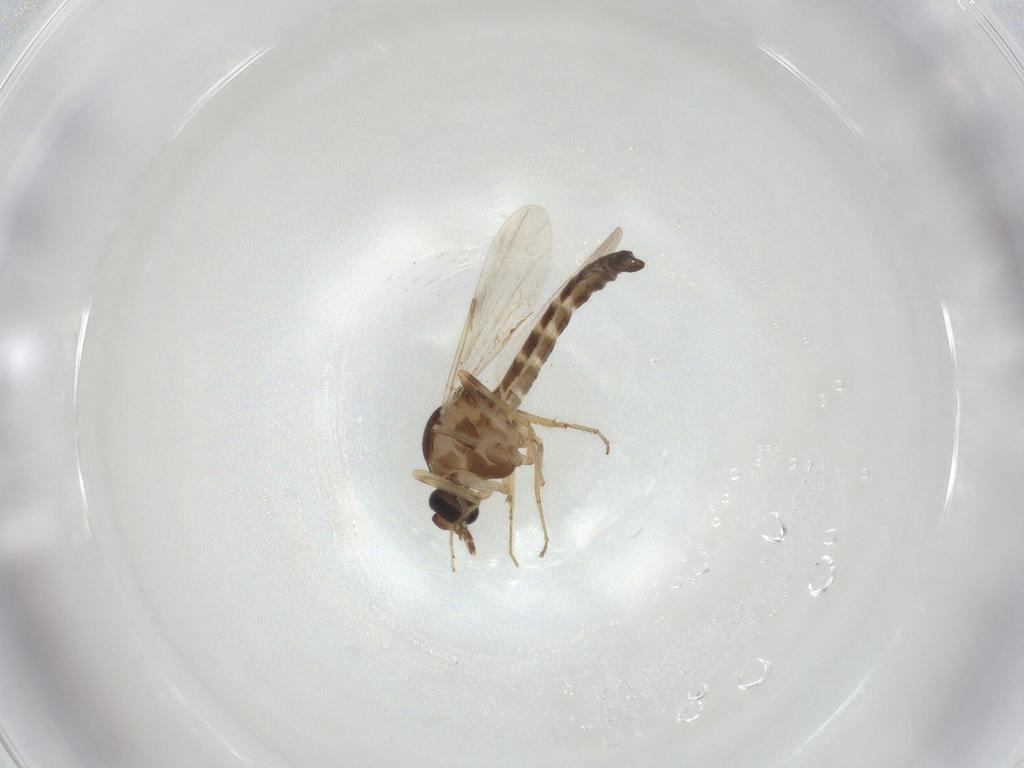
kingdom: Animalia
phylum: Arthropoda
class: Insecta
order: Diptera
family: Ceratopogonidae
